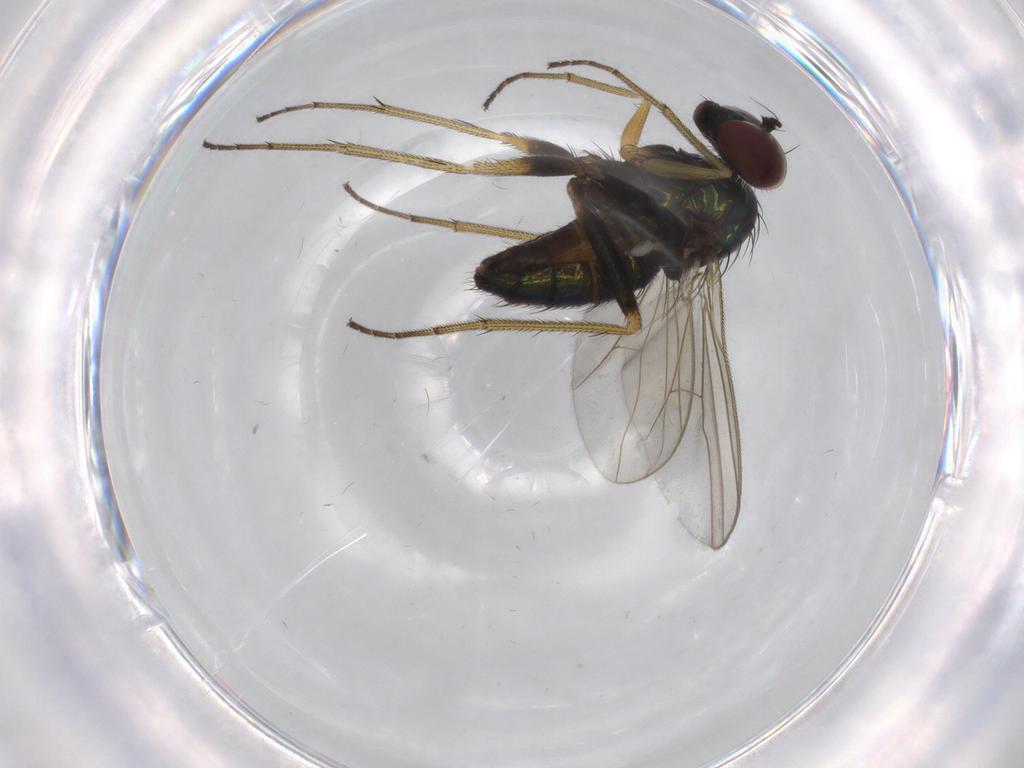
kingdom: Animalia
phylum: Arthropoda
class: Insecta
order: Diptera
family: Dolichopodidae
